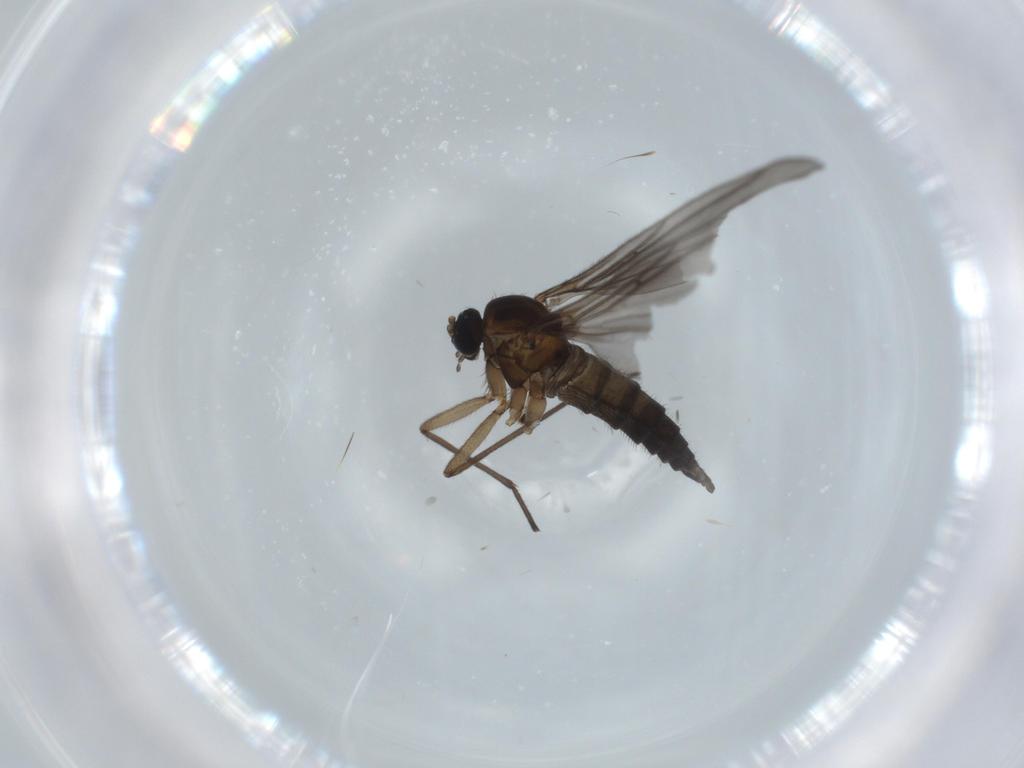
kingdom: Animalia
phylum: Arthropoda
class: Insecta
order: Diptera
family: Sciaridae
